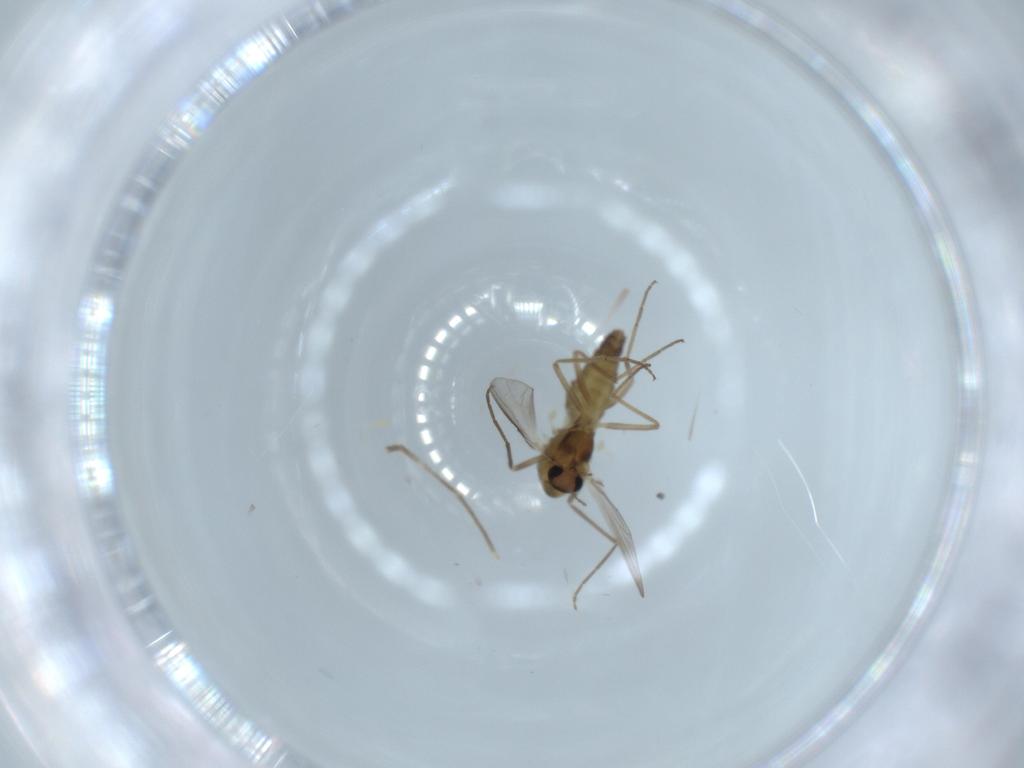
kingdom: Animalia
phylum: Arthropoda
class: Insecta
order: Diptera
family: Cecidomyiidae
